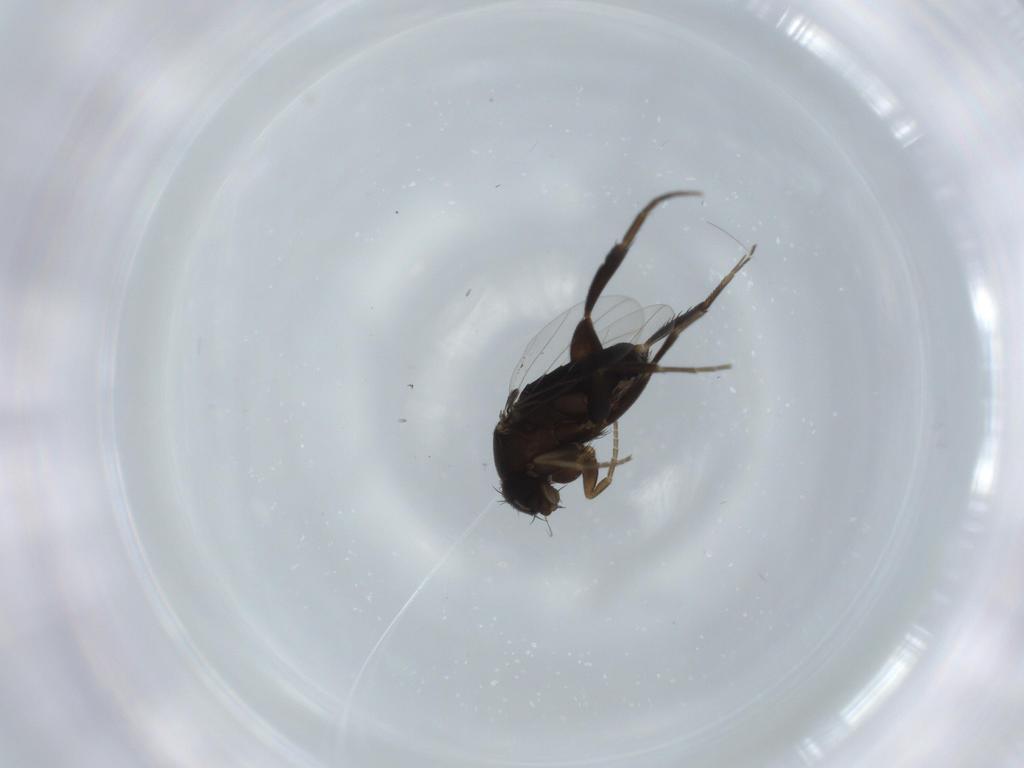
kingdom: Animalia
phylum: Arthropoda
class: Insecta
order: Diptera
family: Phoridae
